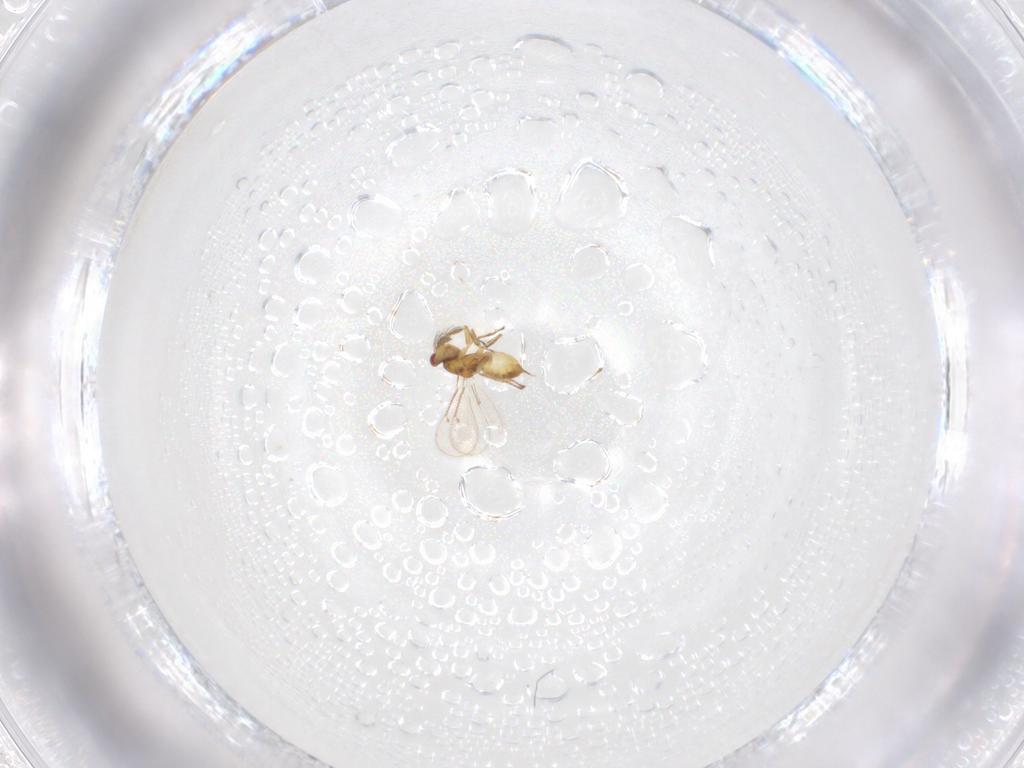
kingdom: Animalia
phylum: Arthropoda
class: Insecta
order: Hymenoptera
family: Eulophidae
